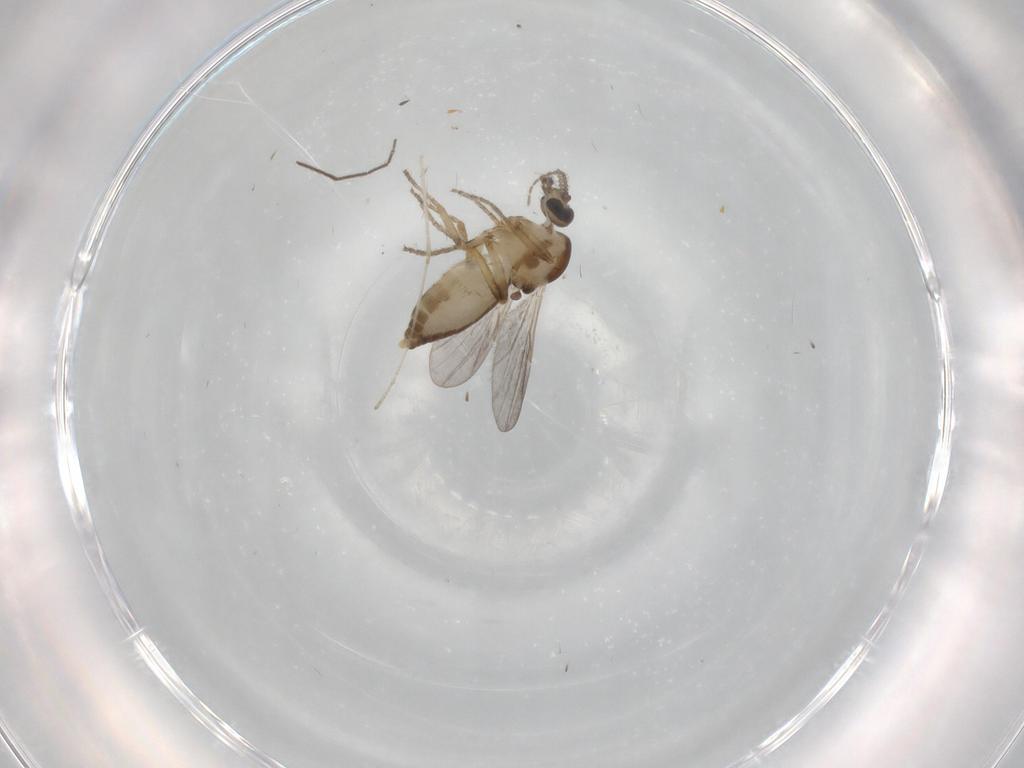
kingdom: Animalia
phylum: Arthropoda
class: Insecta
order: Diptera
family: Ceratopogonidae
